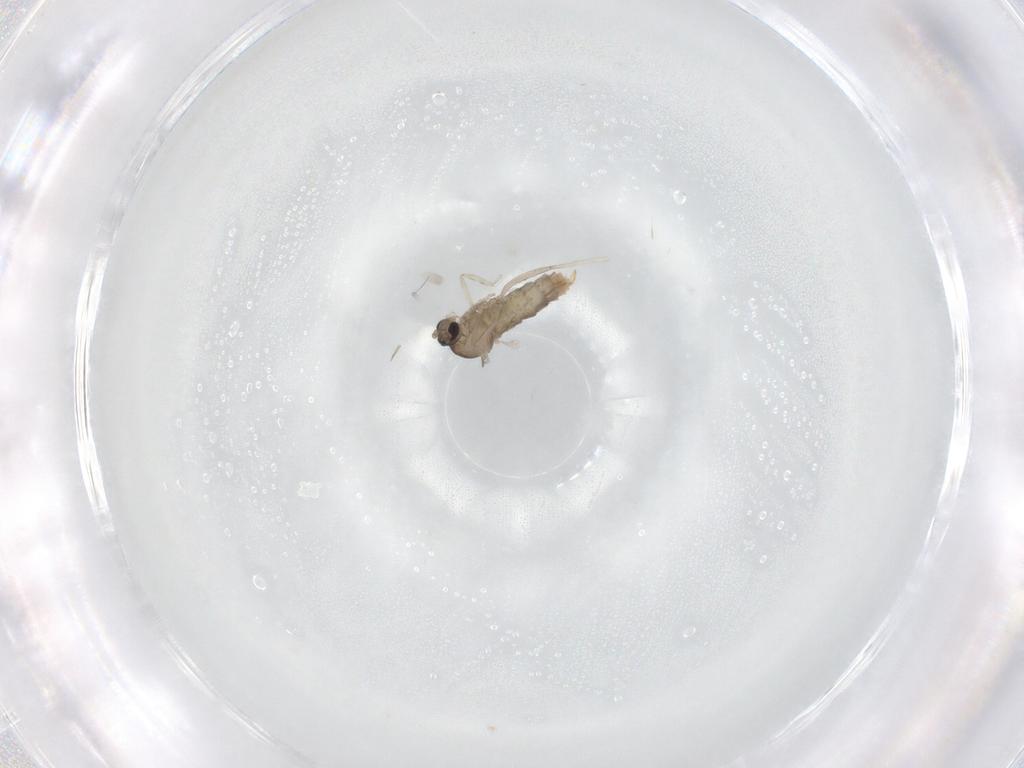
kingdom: Animalia
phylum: Arthropoda
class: Insecta
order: Diptera
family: Cecidomyiidae
